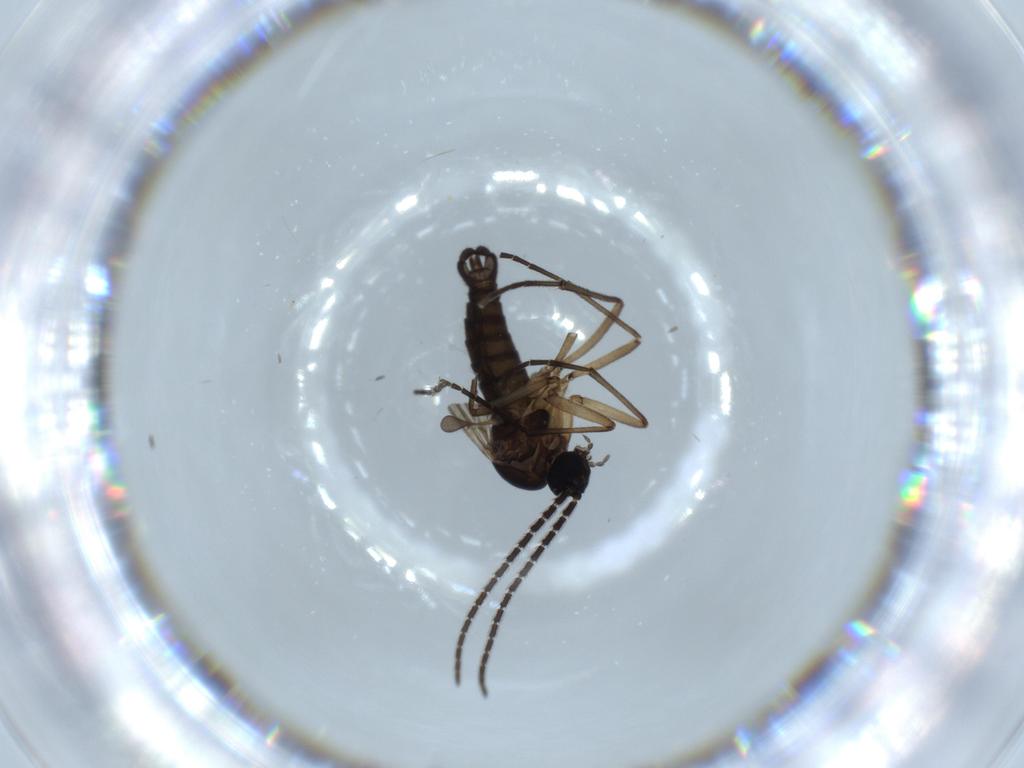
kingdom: Animalia
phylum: Arthropoda
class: Insecta
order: Diptera
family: Sciaridae
